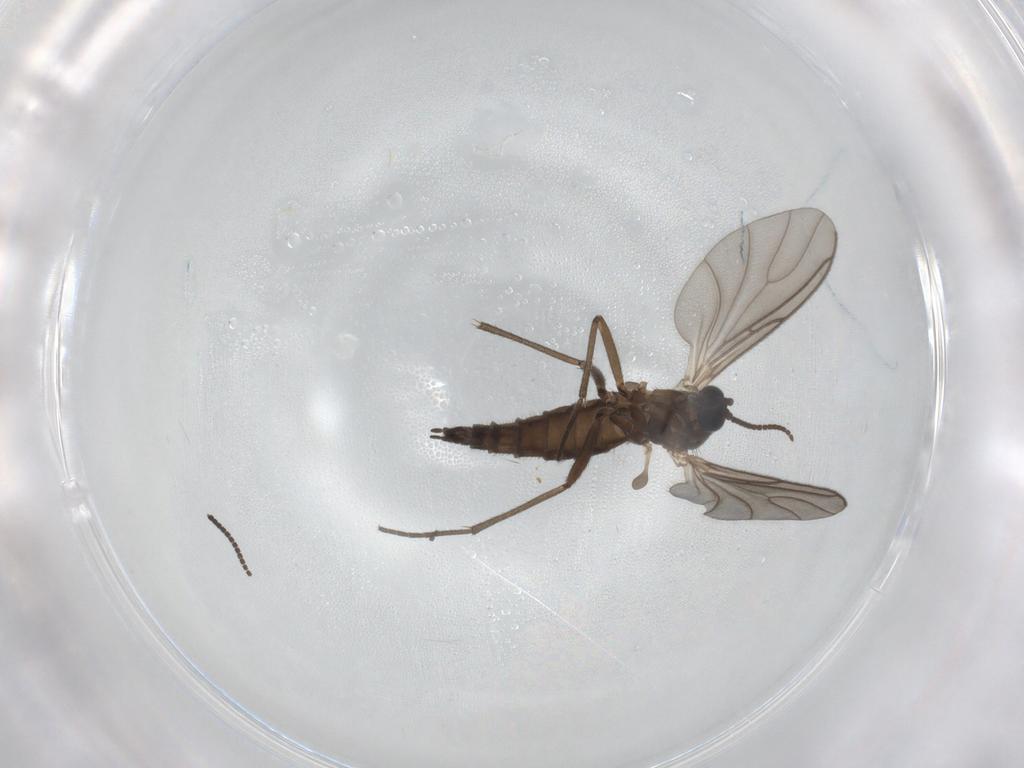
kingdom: Animalia
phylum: Arthropoda
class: Insecta
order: Diptera
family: Sciaridae
